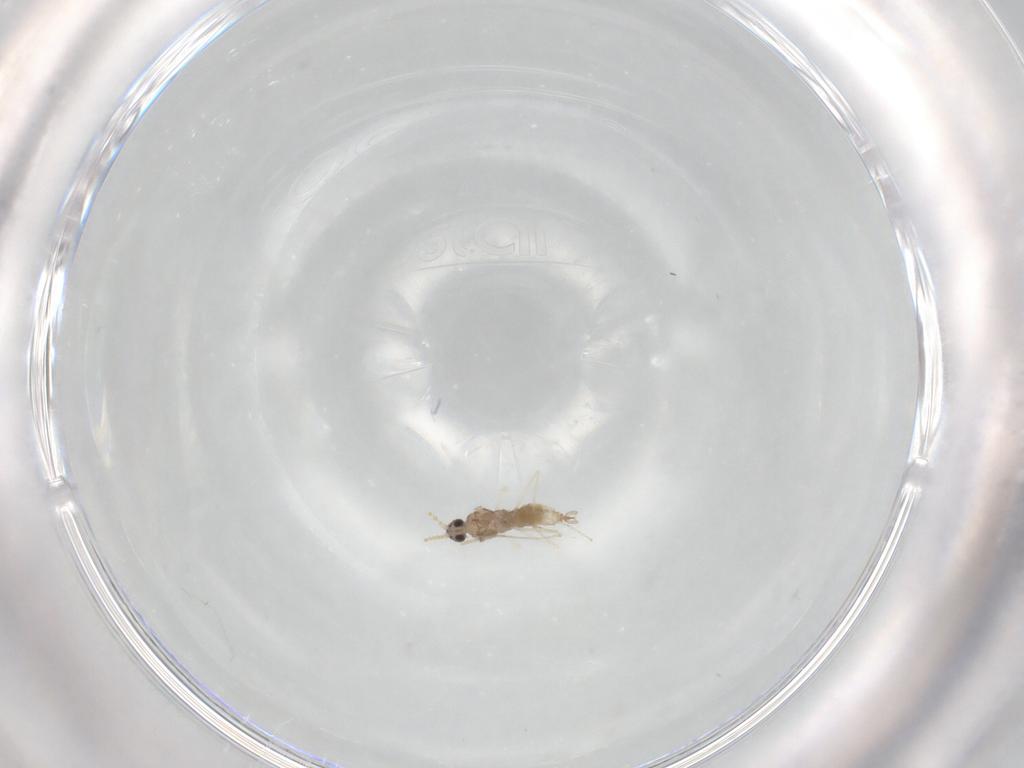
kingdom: Animalia
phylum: Arthropoda
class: Insecta
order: Diptera
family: Cecidomyiidae
